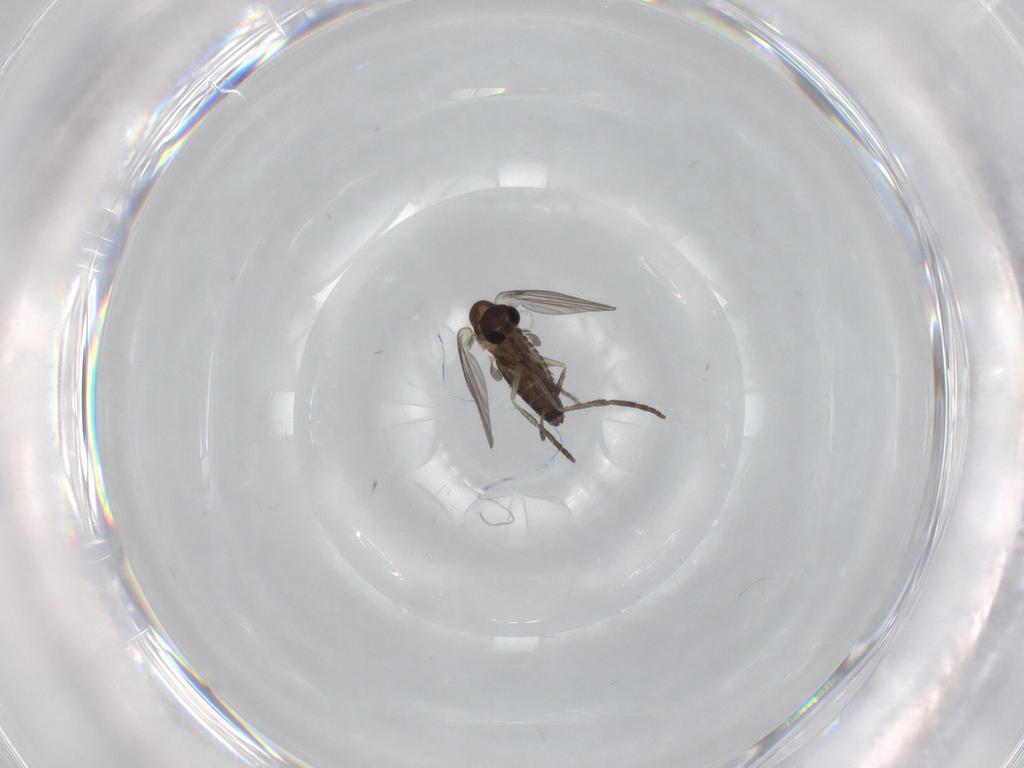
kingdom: Animalia
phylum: Arthropoda
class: Insecta
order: Diptera
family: Cecidomyiidae
